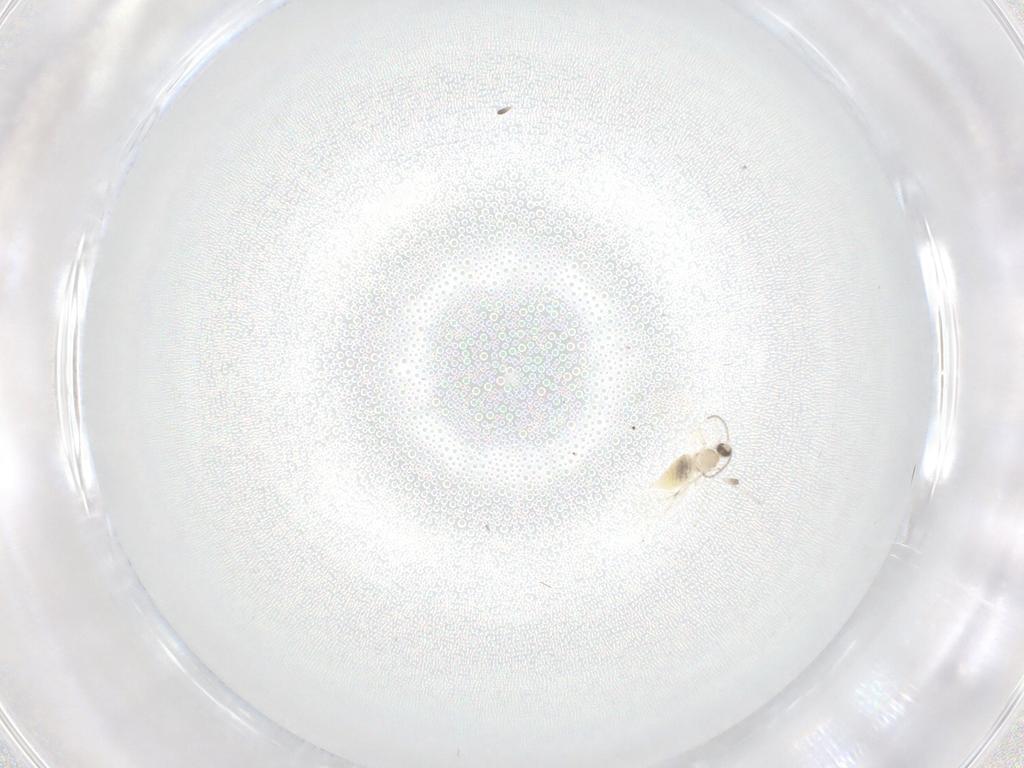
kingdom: Animalia
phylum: Arthropoda
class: Insecta
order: Diptera
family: Cecidomyiidae
